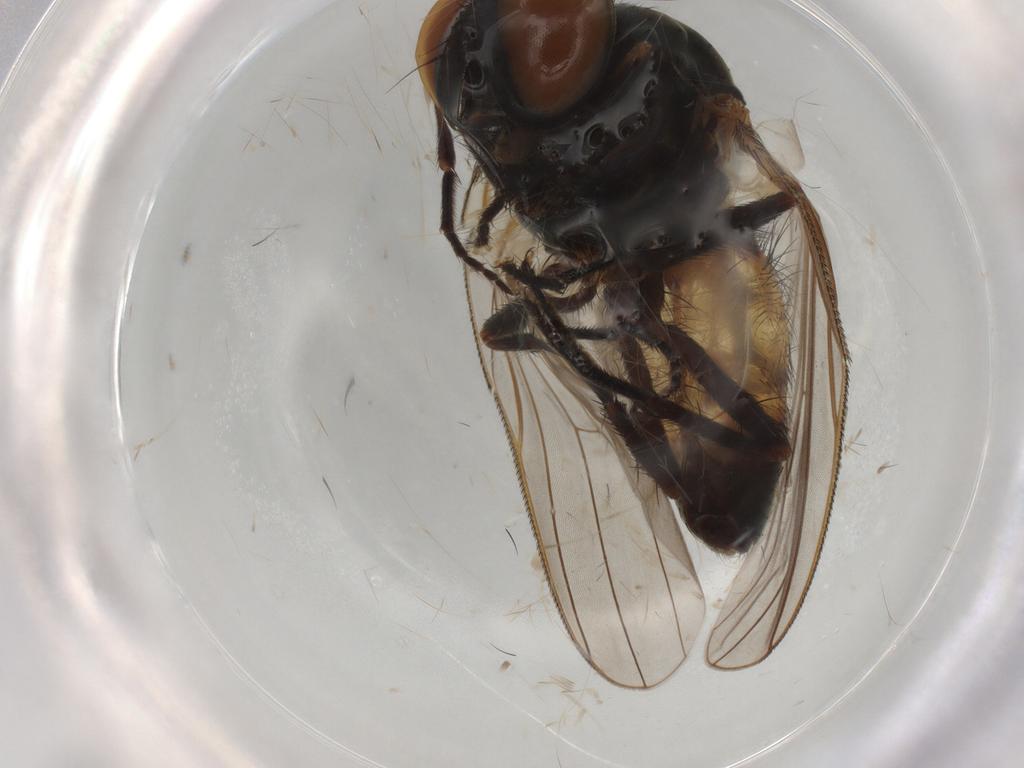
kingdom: Animalia
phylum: Arthropoda
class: Insecta
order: Diptera
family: Fannia
